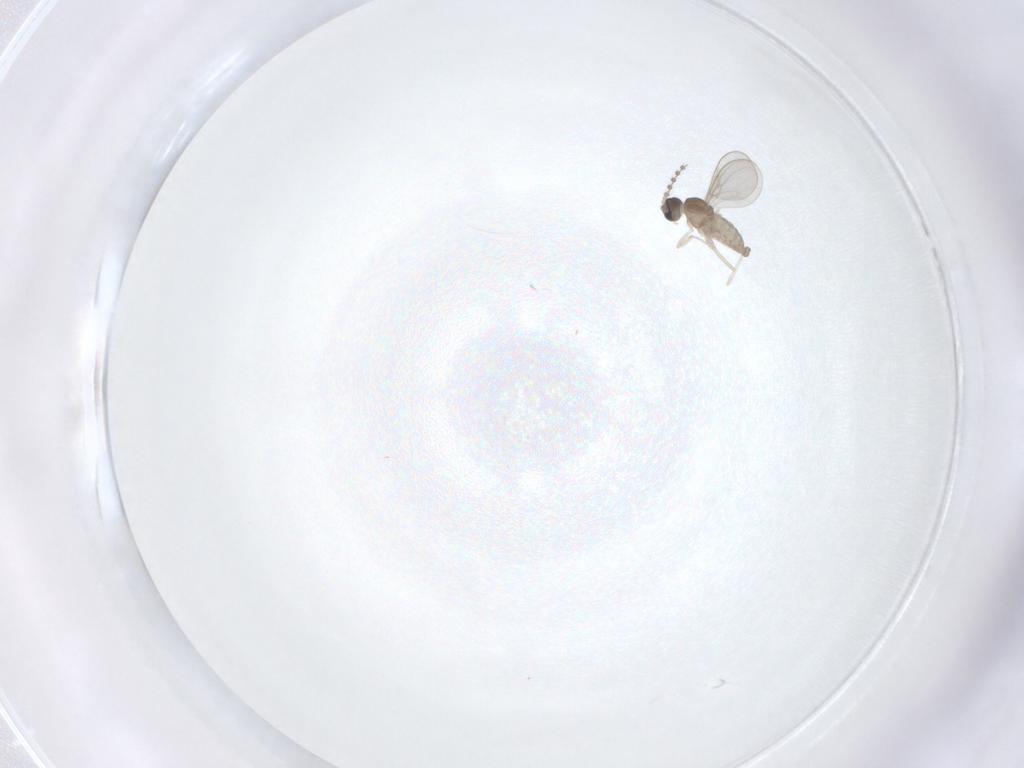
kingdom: Animalia
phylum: Arthropoda
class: Insecta
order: Diptera
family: Cecidomyiidae
